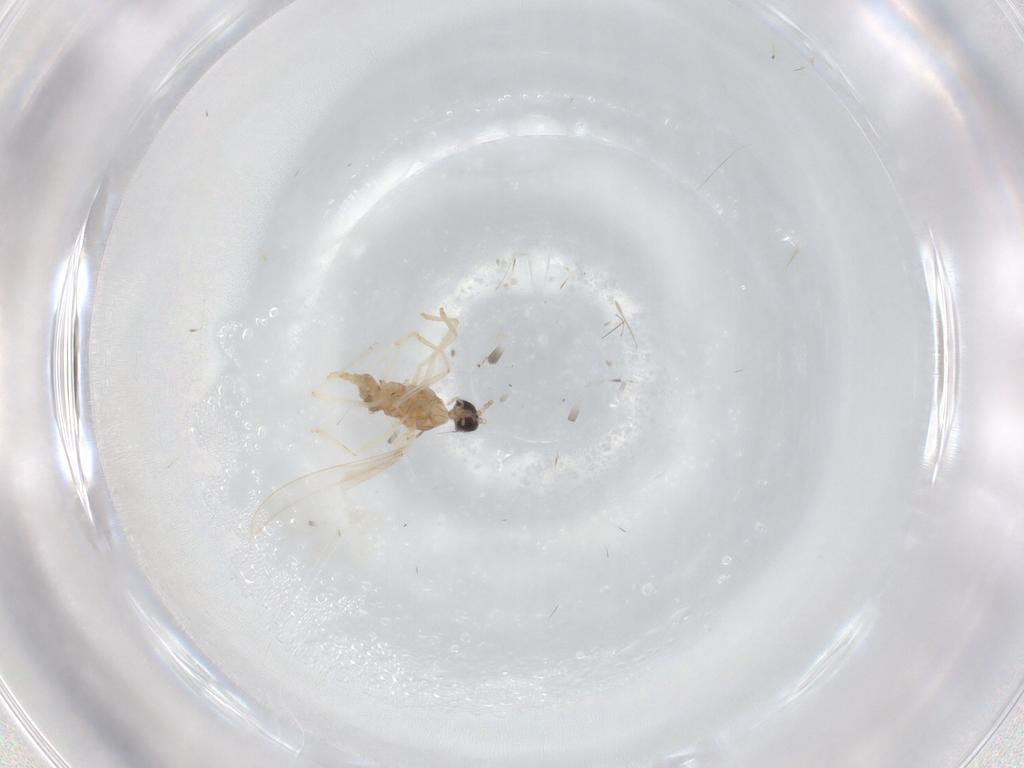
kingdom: Animalia
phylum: Arthropoda
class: Insecta
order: Diptera
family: Cecidomyiidae
